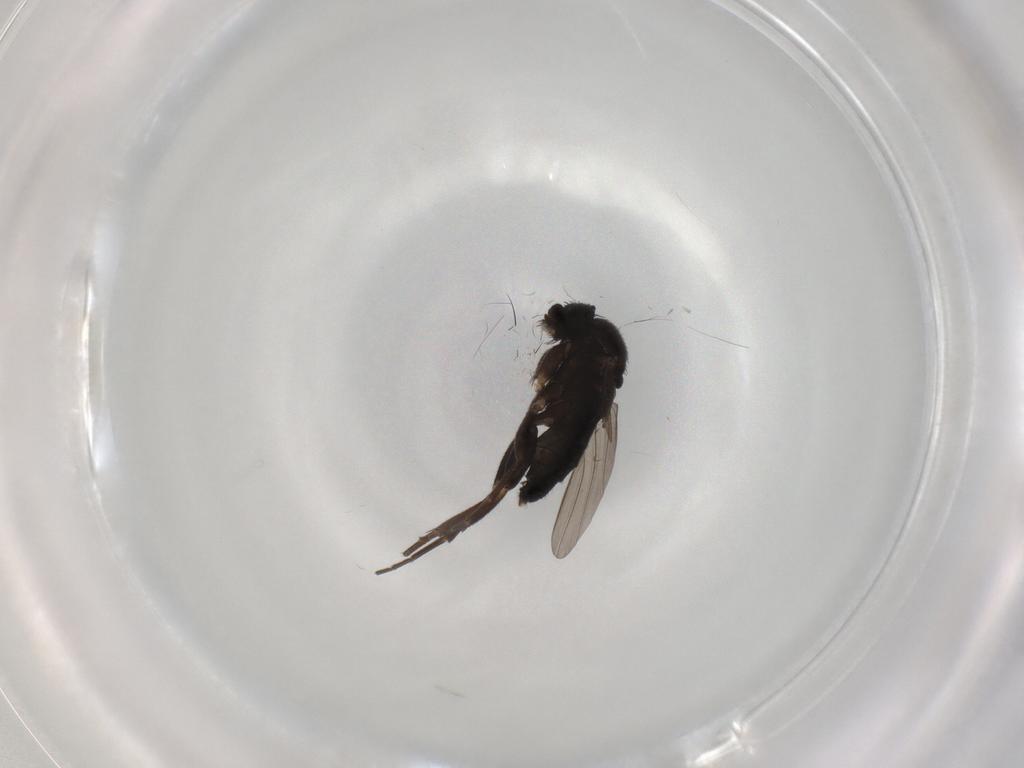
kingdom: Animalia
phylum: Arthropoda
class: Insecta
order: Diptera
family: Phoridae
